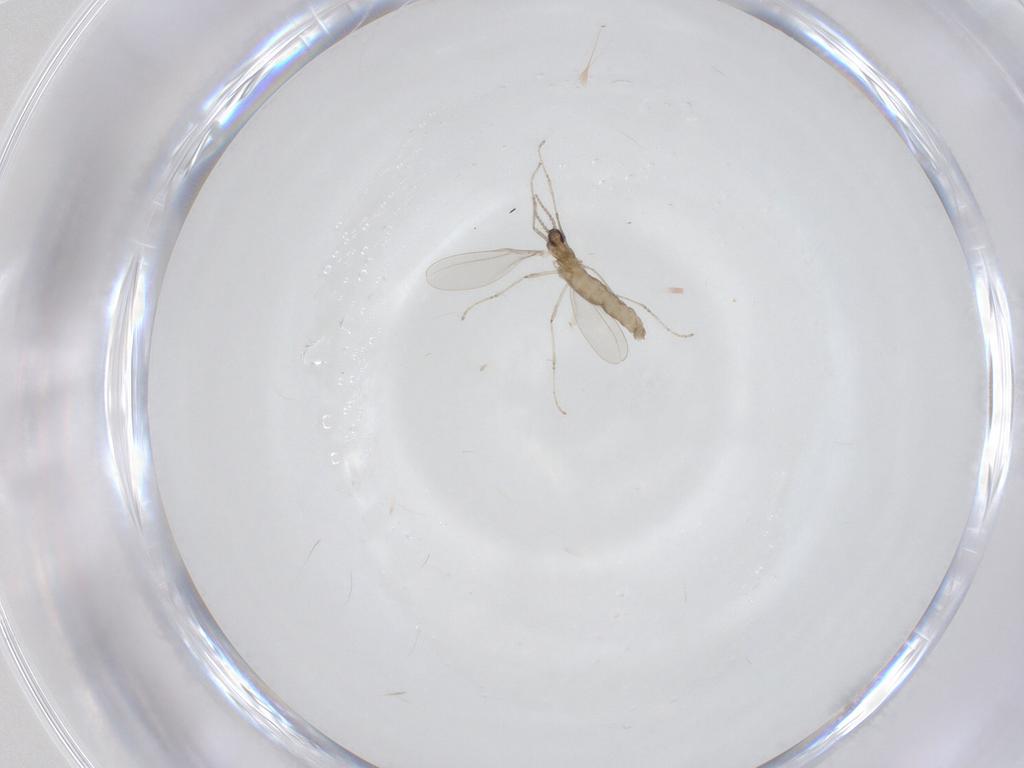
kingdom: Animalia
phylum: Arthropoda
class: Insecta
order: Diptera
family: Cecidomyiidae
